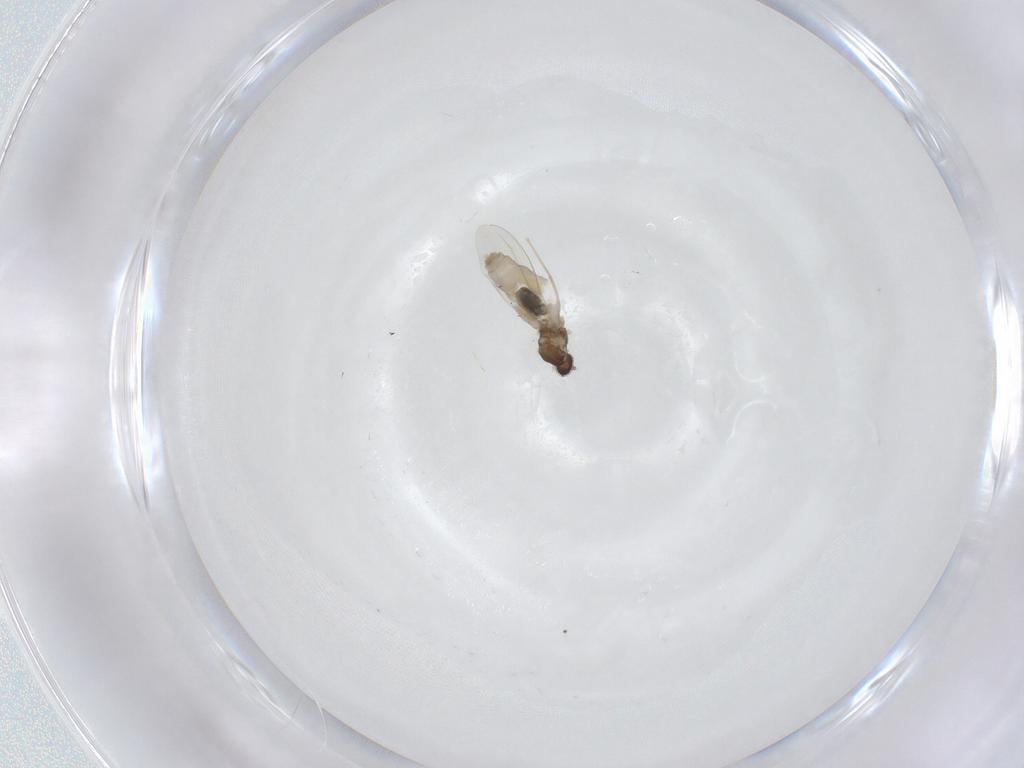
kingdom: Animalia
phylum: Arthropoda
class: Insecta
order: Diptera
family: Cecidomyiidae
